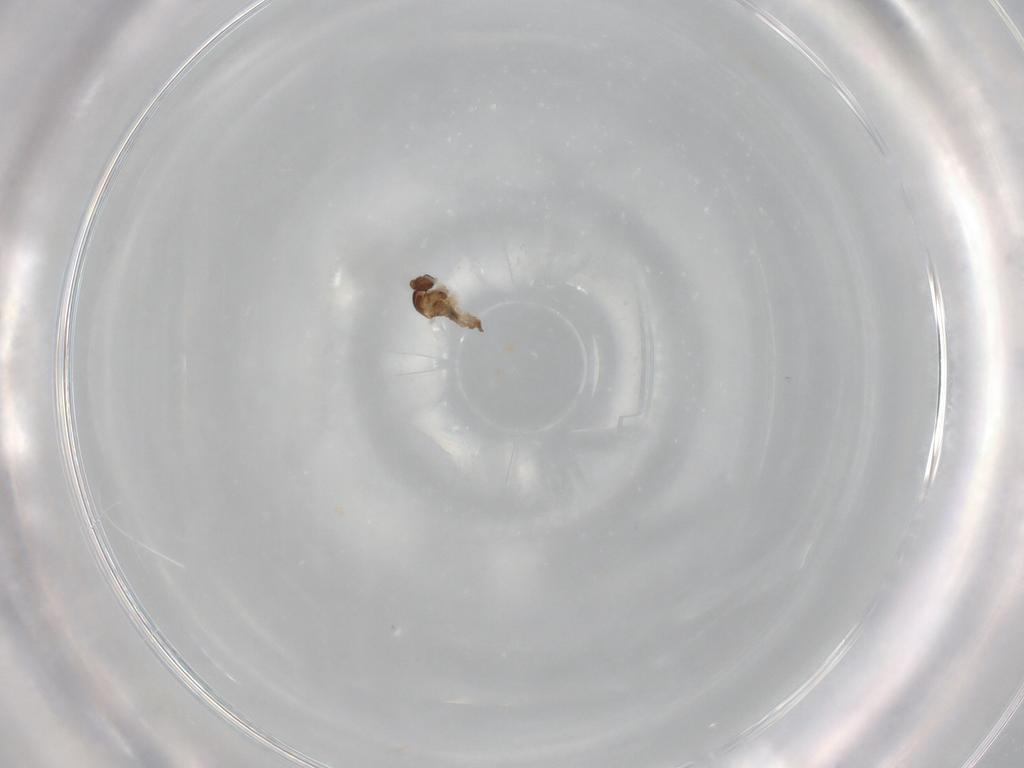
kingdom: Animalia
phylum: Arthropoda
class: Insecta
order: Diptera
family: Cecidomyiidae
